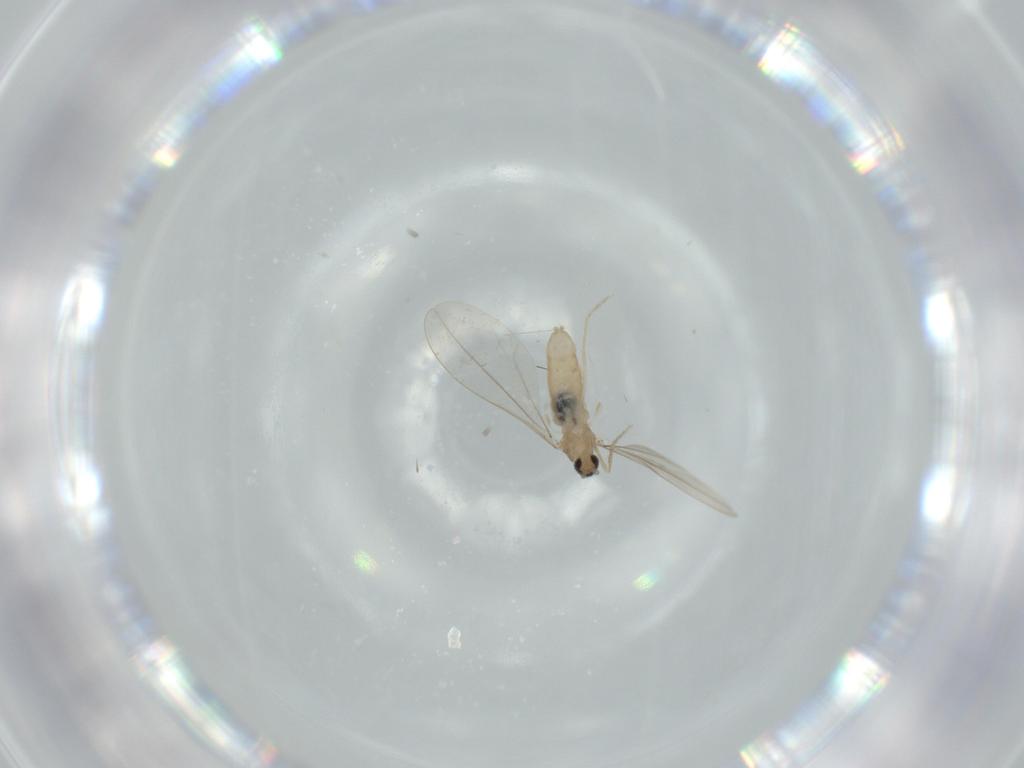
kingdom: Animalia
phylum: Arthropoda
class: Insecta
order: Diptera
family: Cecidomyiidae
